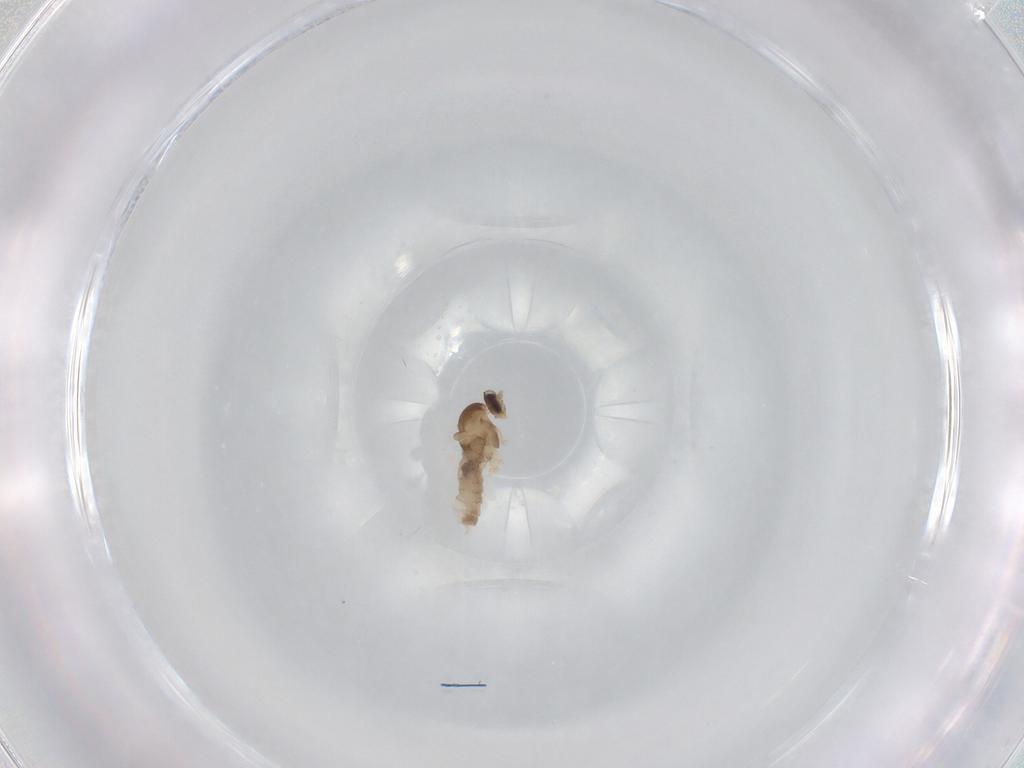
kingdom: Animalia
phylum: Arthropoda
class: Insecta
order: Diptera
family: Cecidomyiidae
